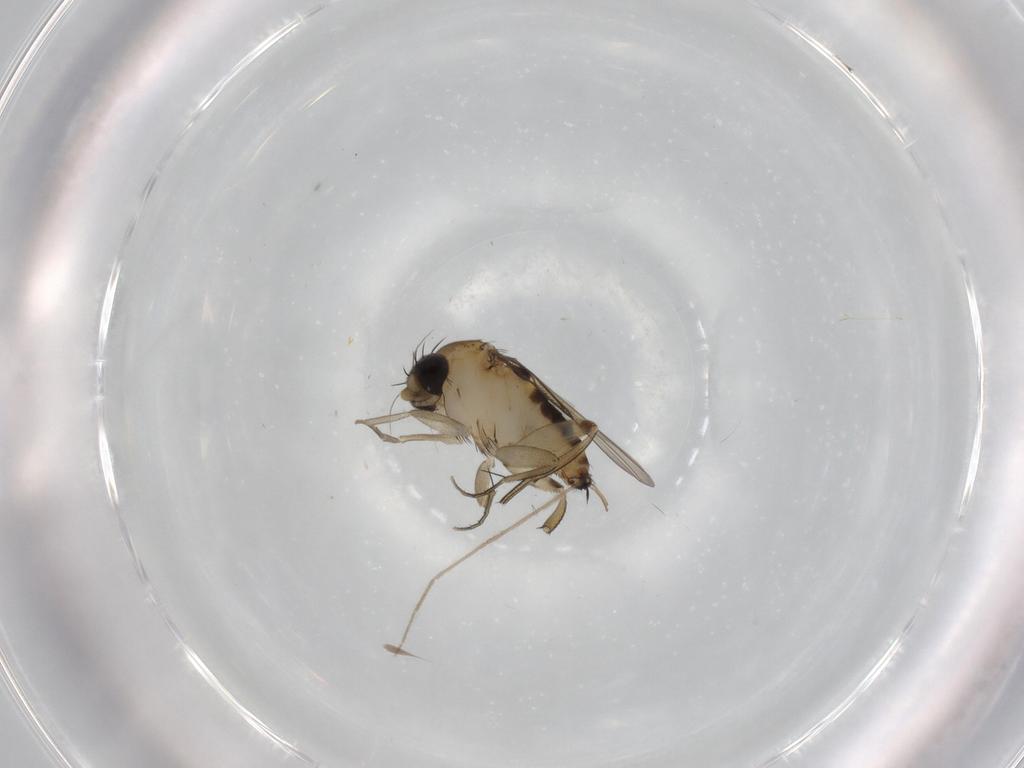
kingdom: Animalia
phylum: Arthropoda
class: Insecta
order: Diptera
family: Phoridae
